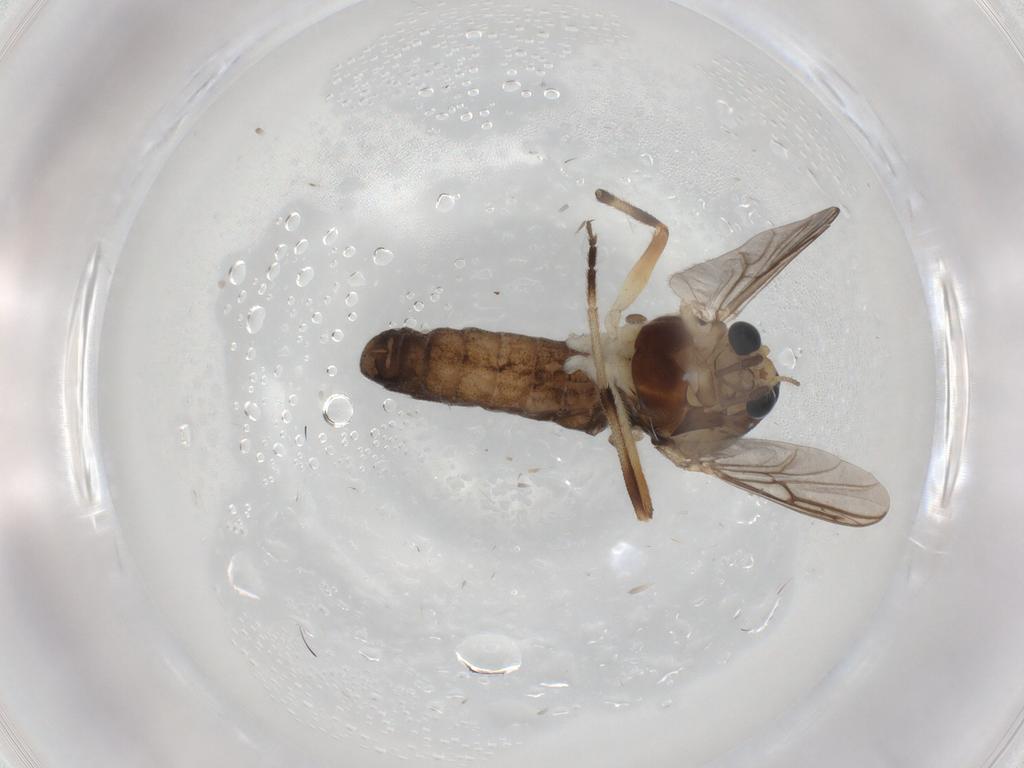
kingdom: Animalia
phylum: Arthropoda
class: Insecta
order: Diptera
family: Chironomidae
